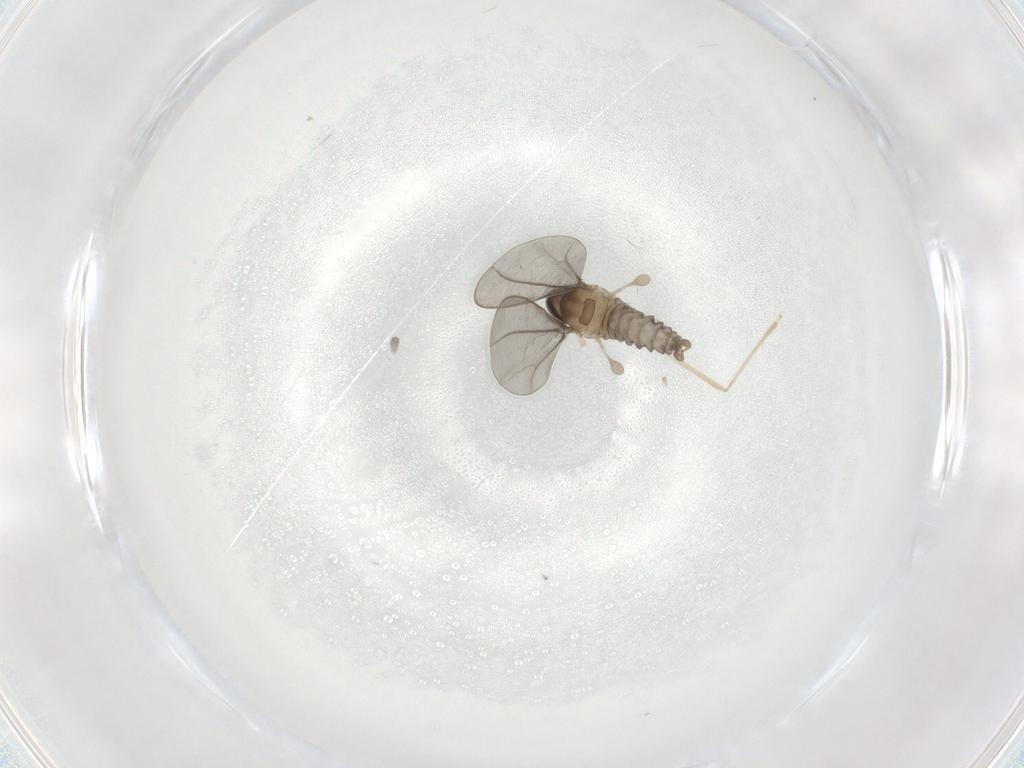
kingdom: Animalia
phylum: Arthropoda
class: Insecta
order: Diptera
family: Cecidomyiidae
